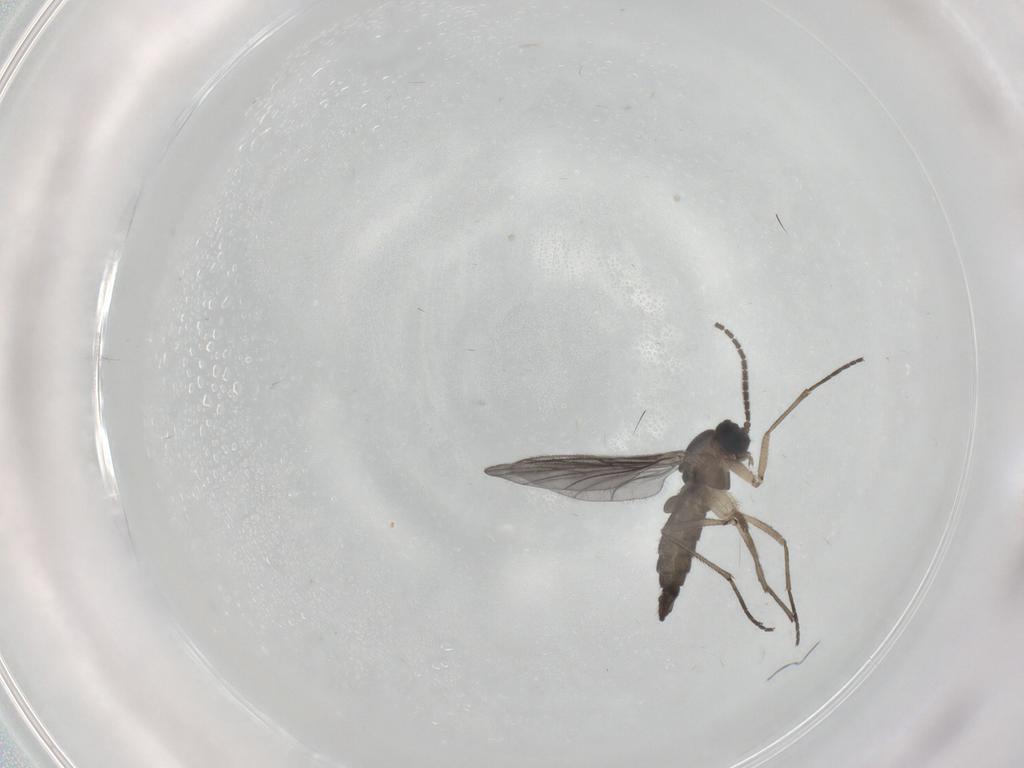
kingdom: Animalia
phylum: Arthropoda
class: Insecta
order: Diptera
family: Sciaridae
